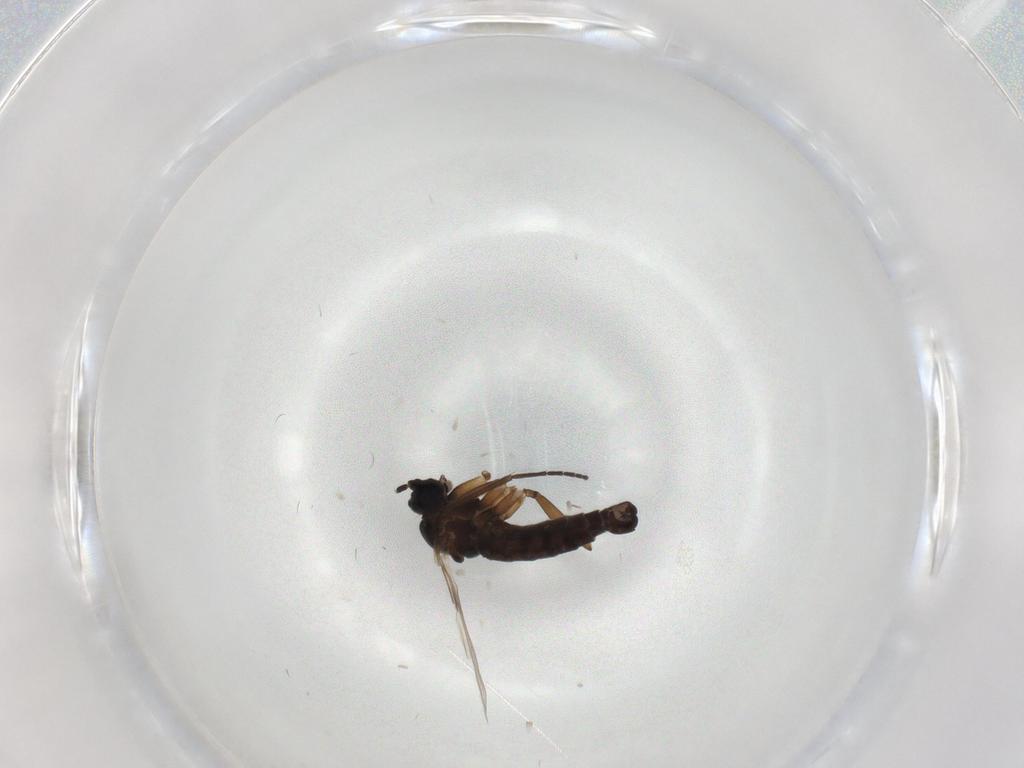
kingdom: Animalia
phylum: Arthropoda
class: Insecta
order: Diptera
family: Sciaridae
